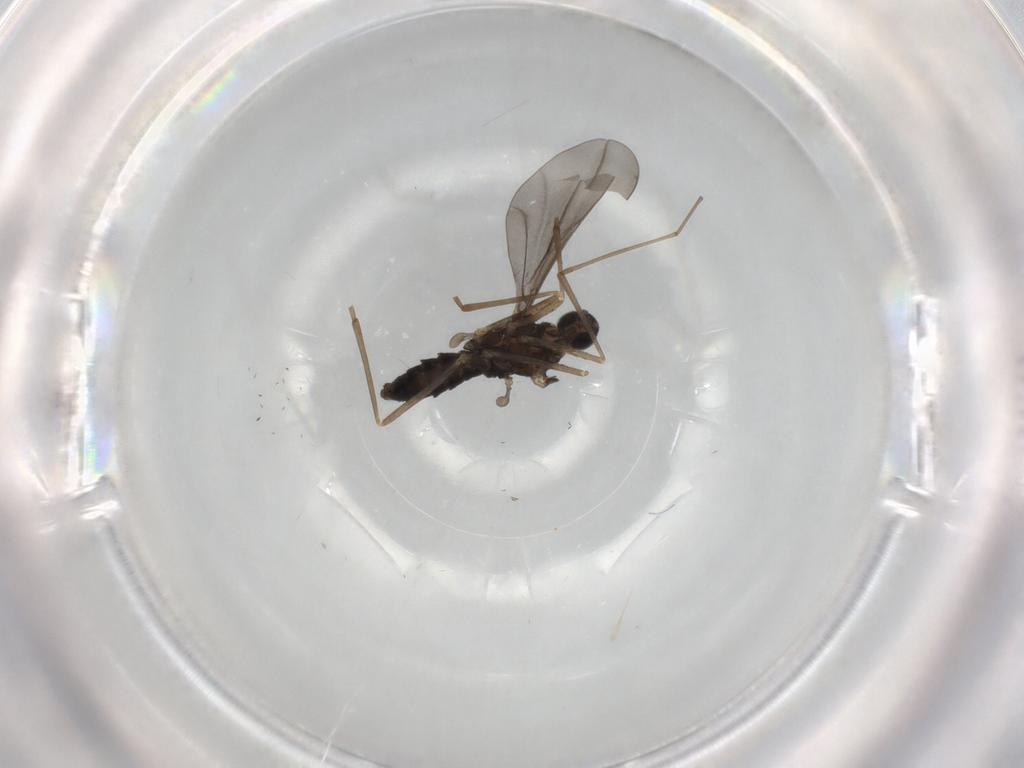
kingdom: Animalia
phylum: Arthropoda
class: Insecta
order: Diptera
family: Cecidomyiidae
